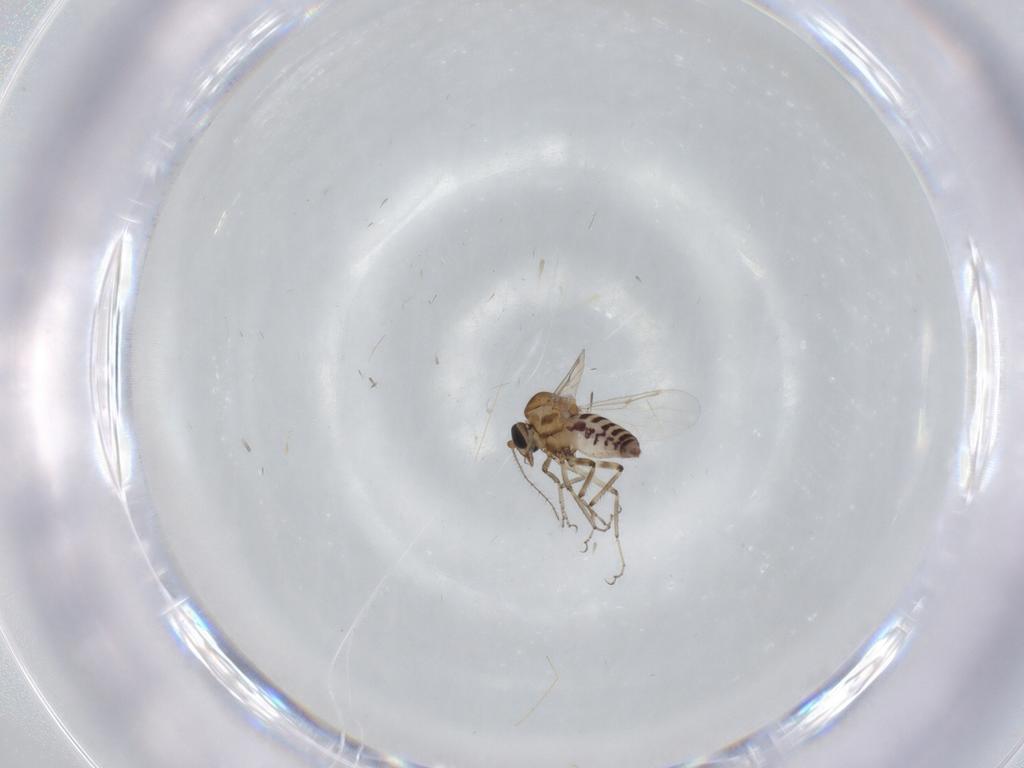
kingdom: Animalia
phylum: Arthropoda
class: Insecta
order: Diptera
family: Ceratopogonidae
